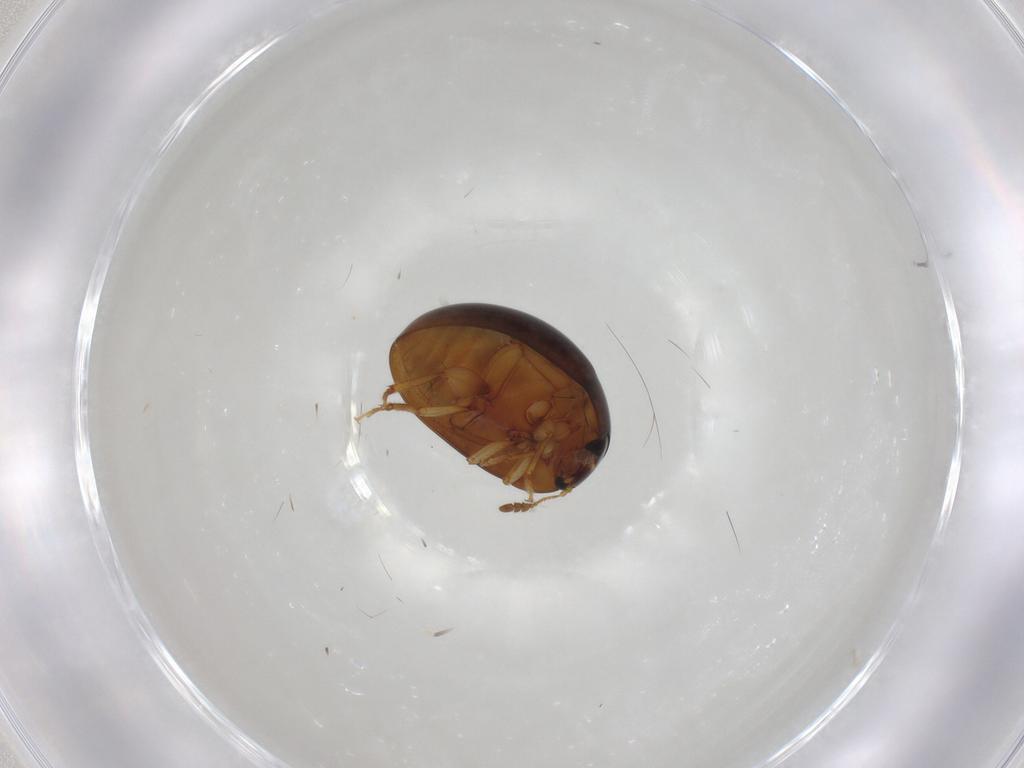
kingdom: Animalia
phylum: Arthropoda
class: Insecta
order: Coleoptera
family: Phalacridae
